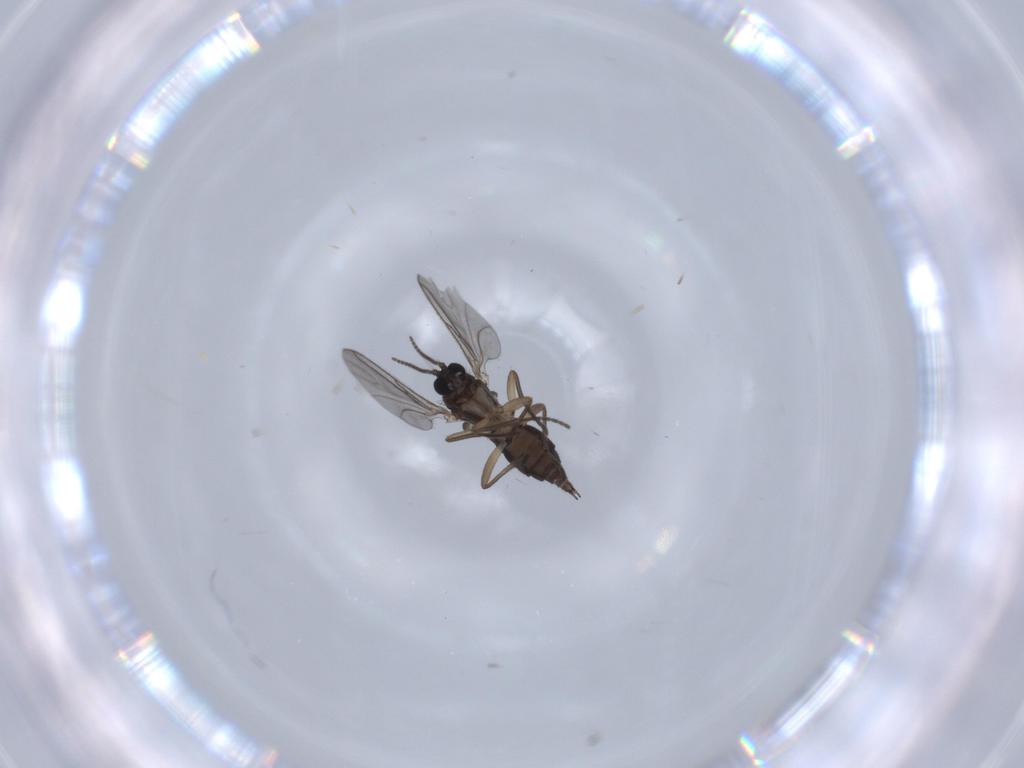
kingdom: Animalia
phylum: Arthropoda
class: Insecta
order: Diptera
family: Sciaridae
